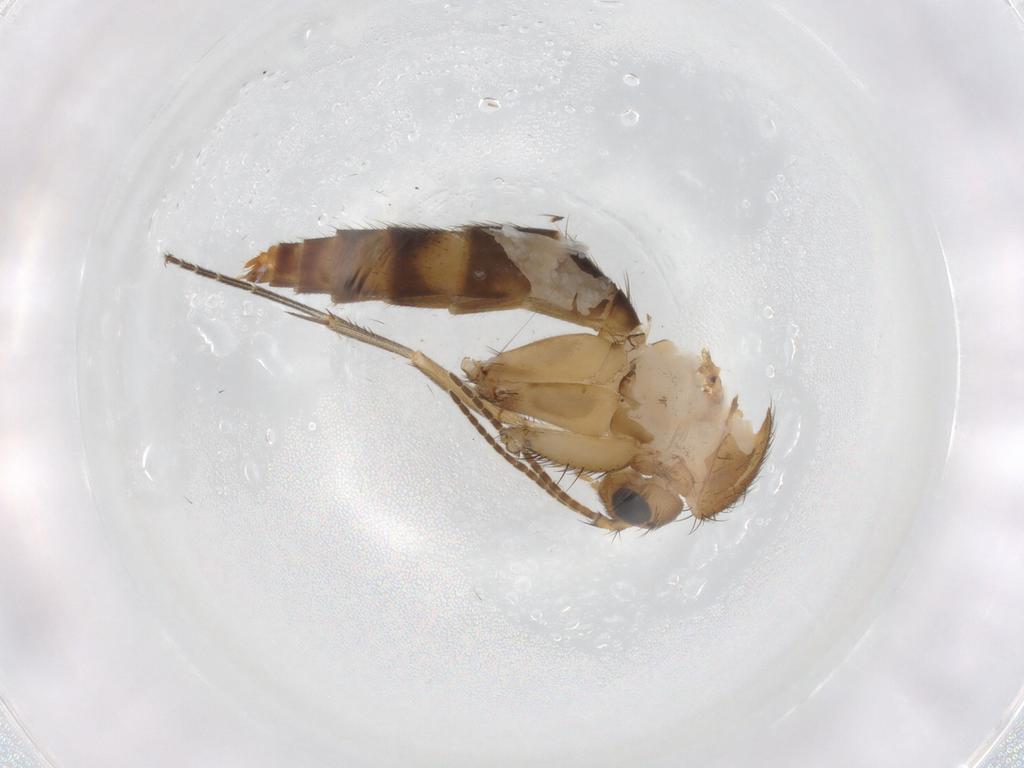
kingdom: Animalia
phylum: Arthropoda
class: Insecta
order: Diptera
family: Chironomidae
